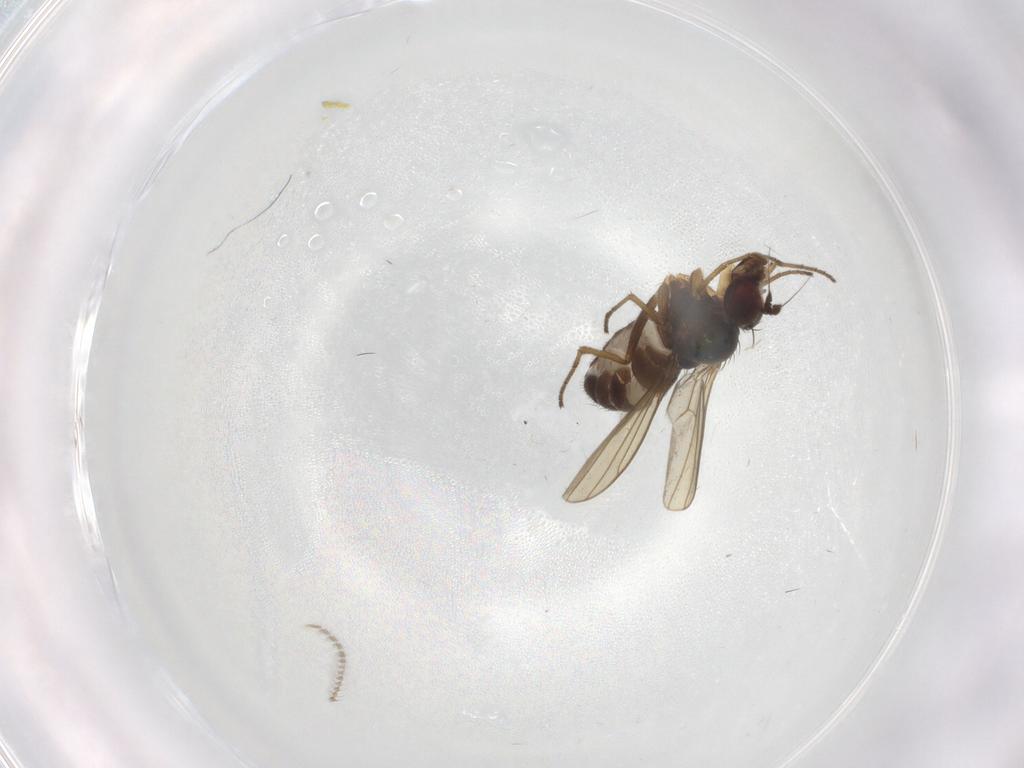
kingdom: Animalia
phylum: Arthropoda
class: Insecta
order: Diptera
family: Dolichopodidae
